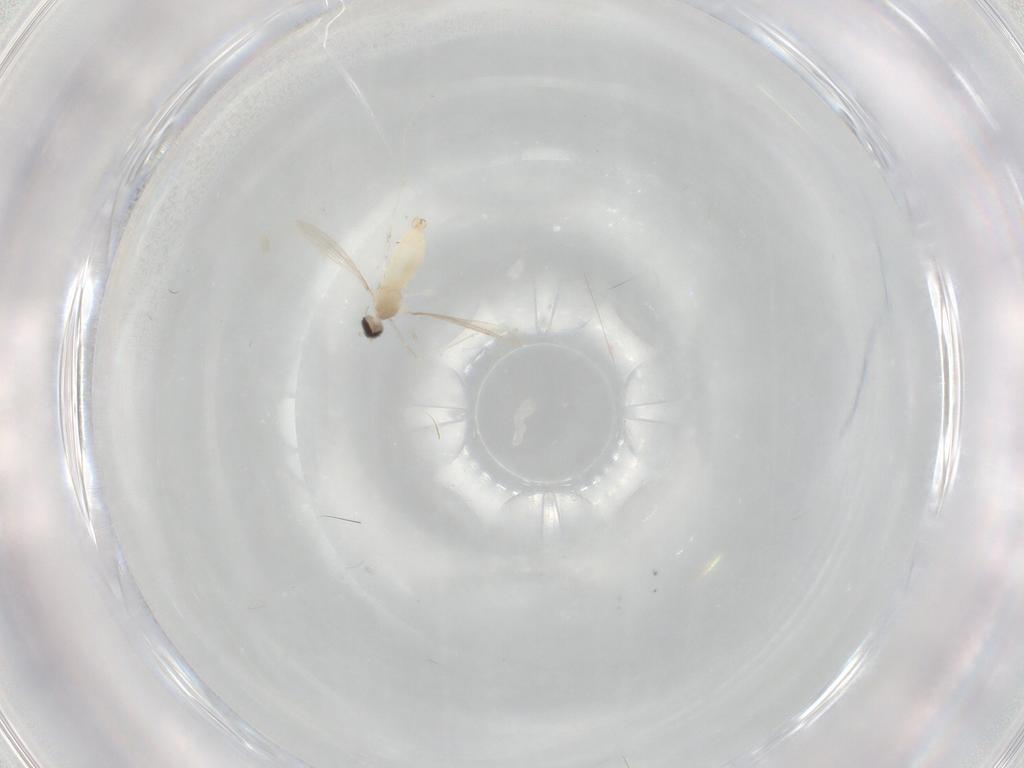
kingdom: Animalia
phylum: Arthropoda
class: Insecta
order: Diptera
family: Cecidomyiidae
